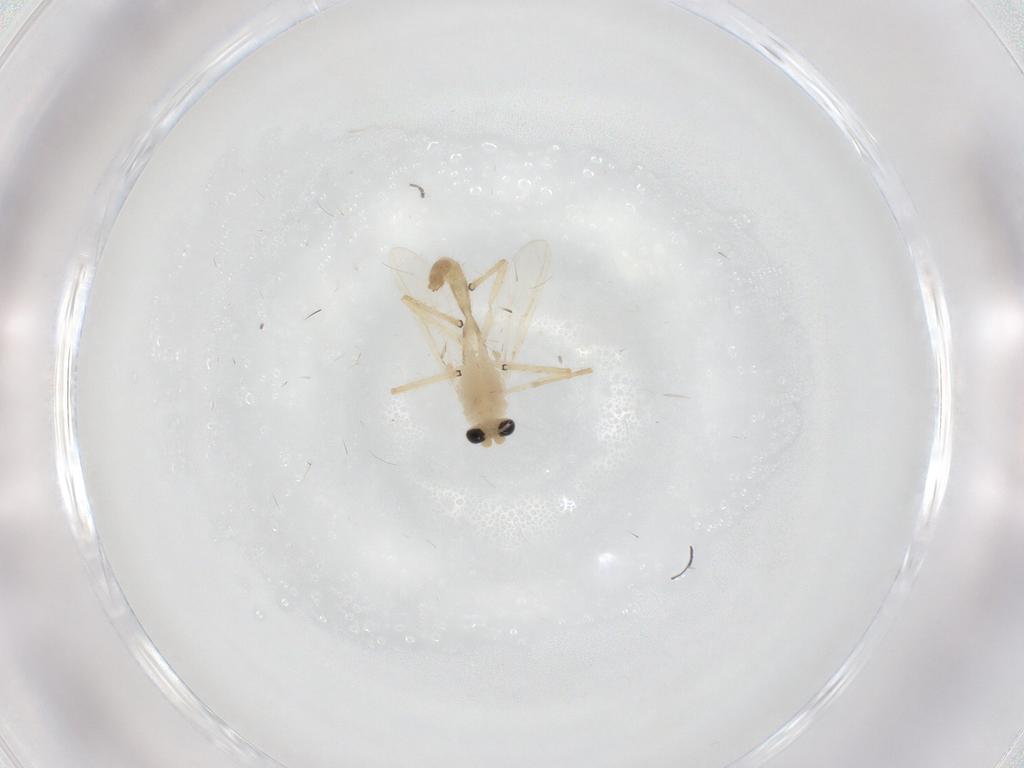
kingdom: Animalia
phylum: Arthropoda
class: Insecta
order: Diptera
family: Chironomidae
